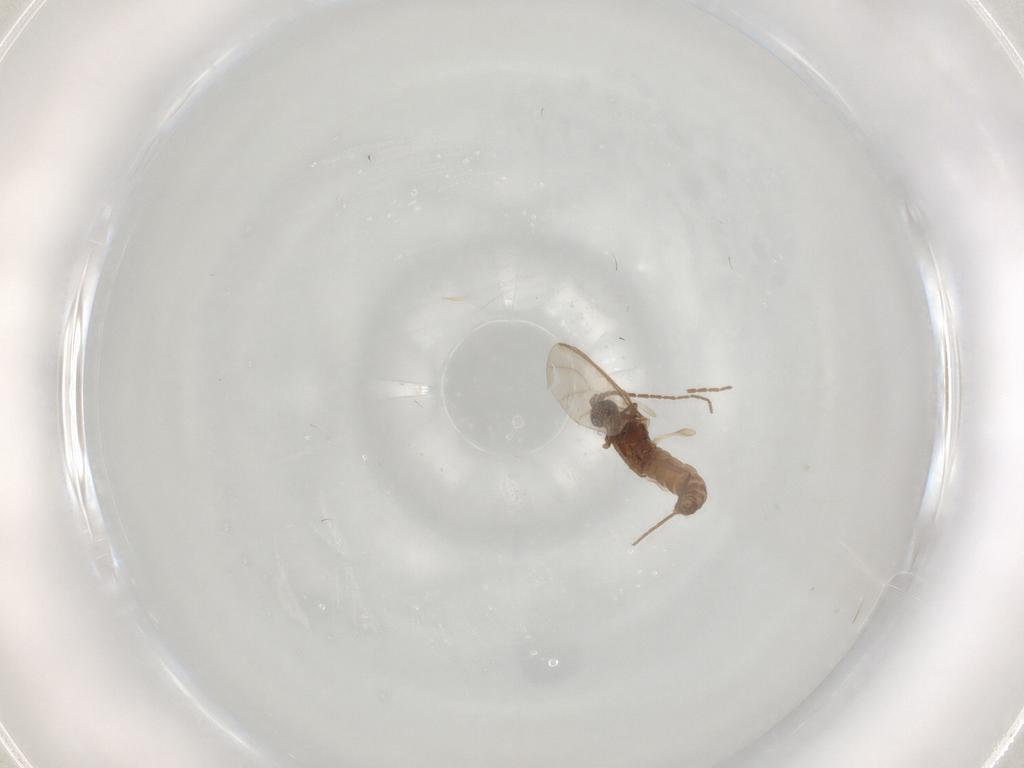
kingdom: Animalia
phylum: Arthropoda
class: Insecta
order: Diptera
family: Sciaridae
